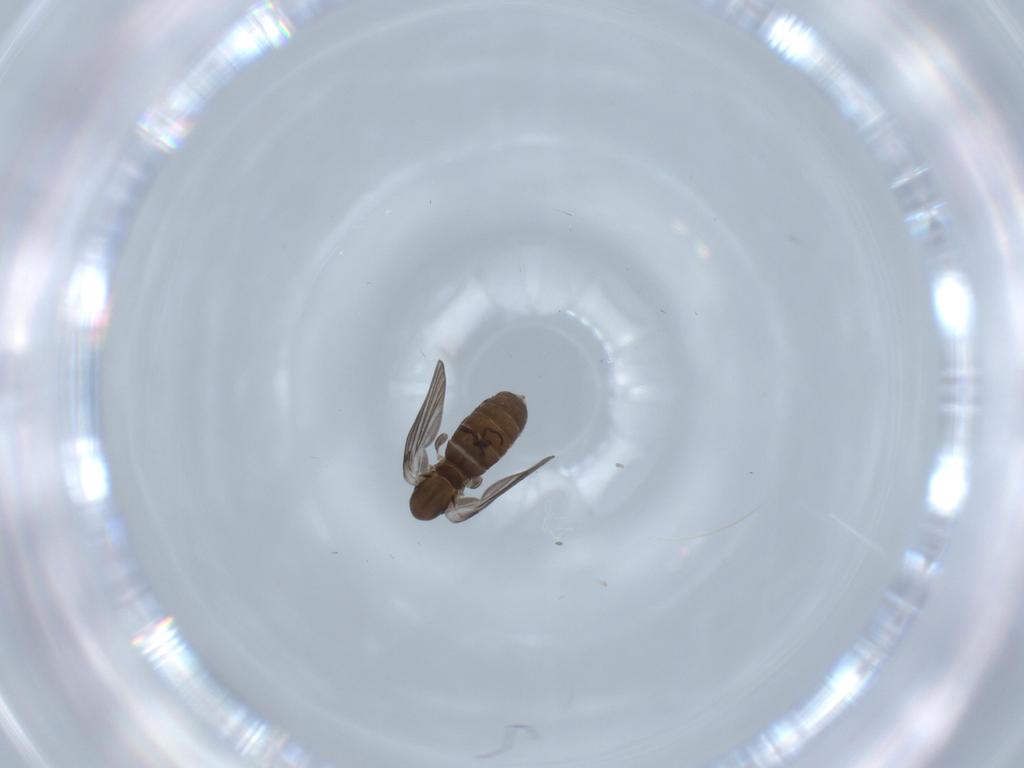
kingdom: Animalia
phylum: Arthropoda
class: Insecta
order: Diptera
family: Psychodidae
